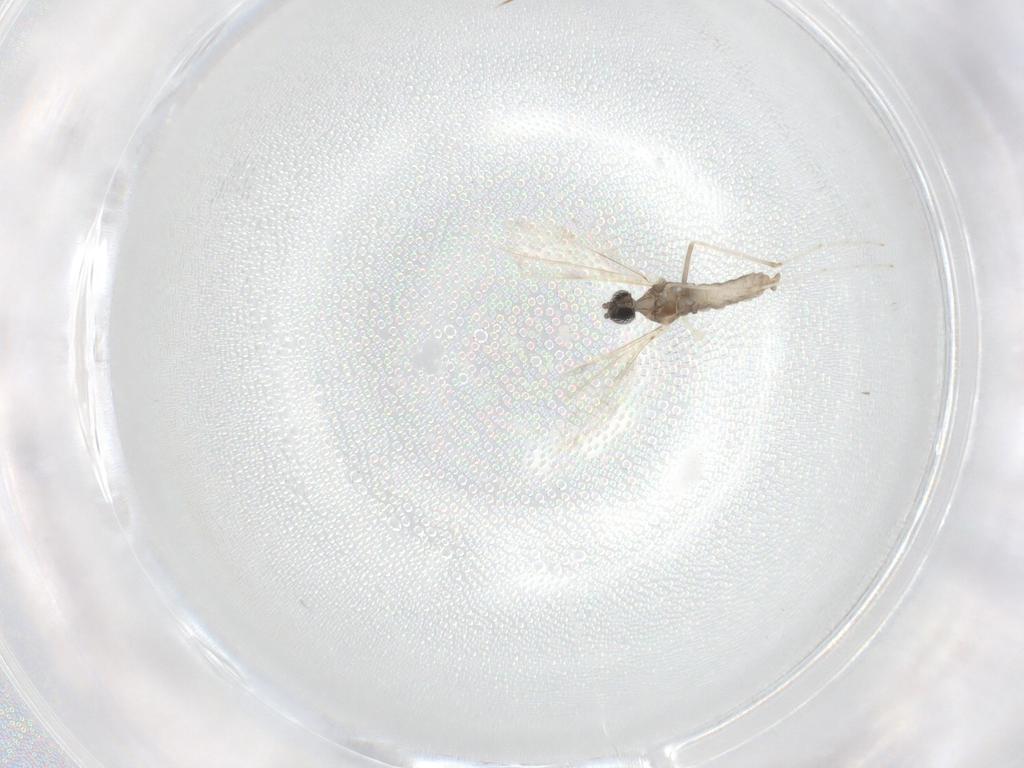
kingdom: Animalia
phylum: Arthropoda
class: Insecta
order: Diptera
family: Cecidomyiidae
